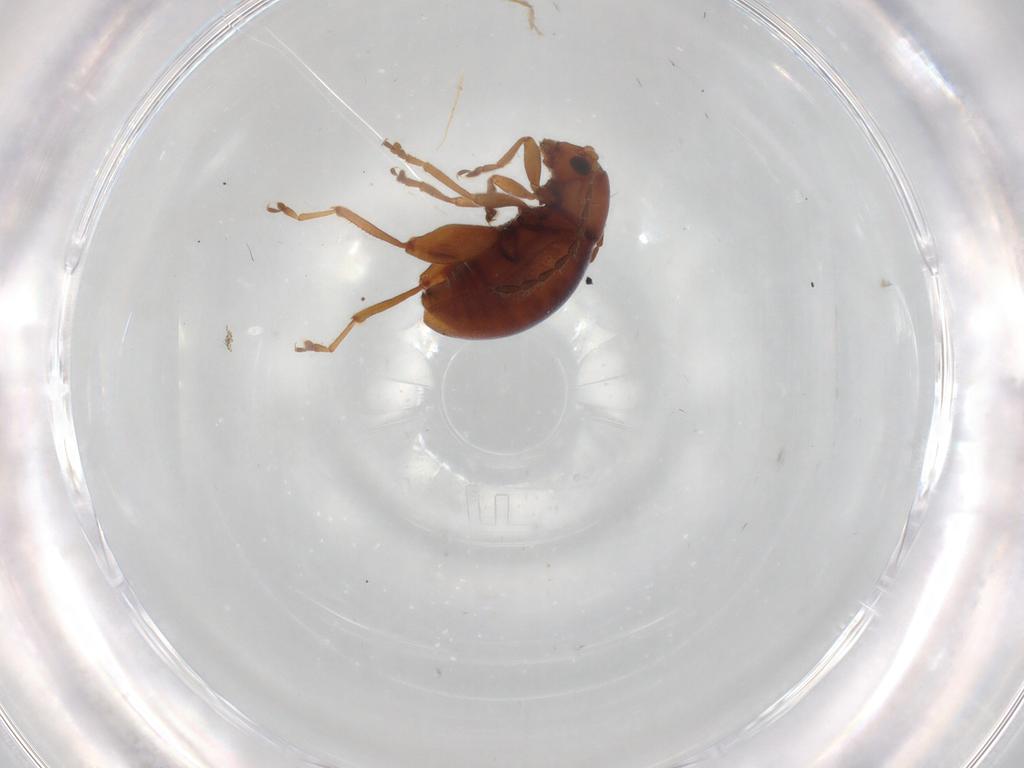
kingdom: Animalia
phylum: Arthropoda
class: Insecta
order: Coleoptera
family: Chrysomelidae
